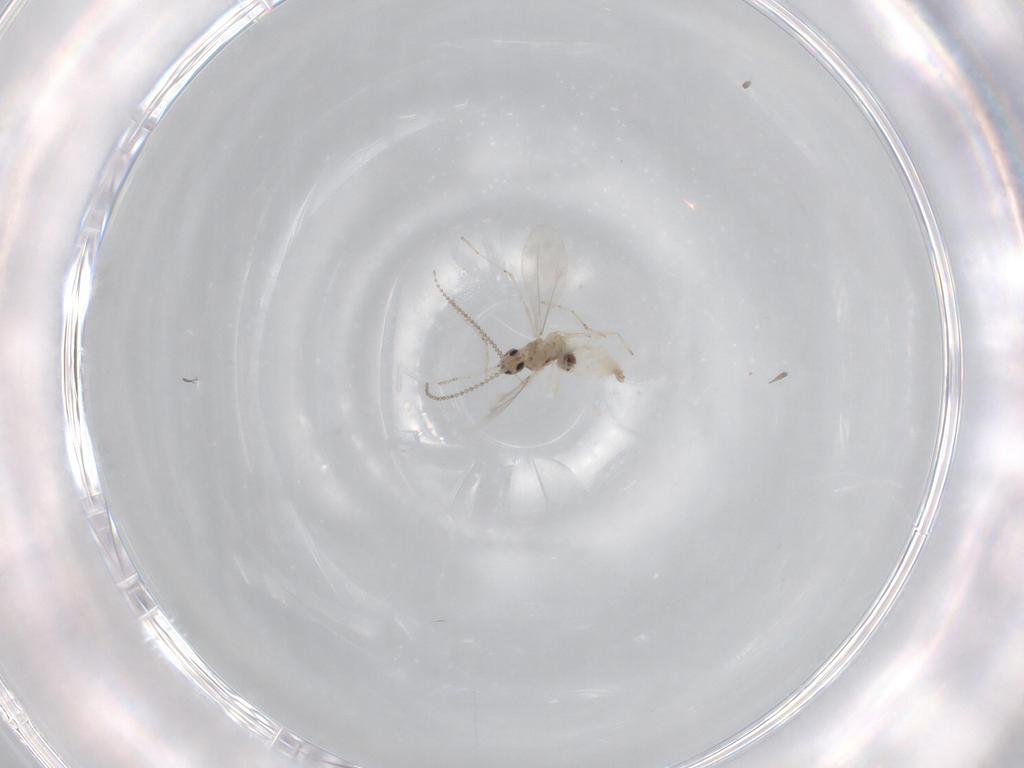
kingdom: Animalia
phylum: Arthropoda
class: Insecta
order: Diptera
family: Cecidomyiidae
